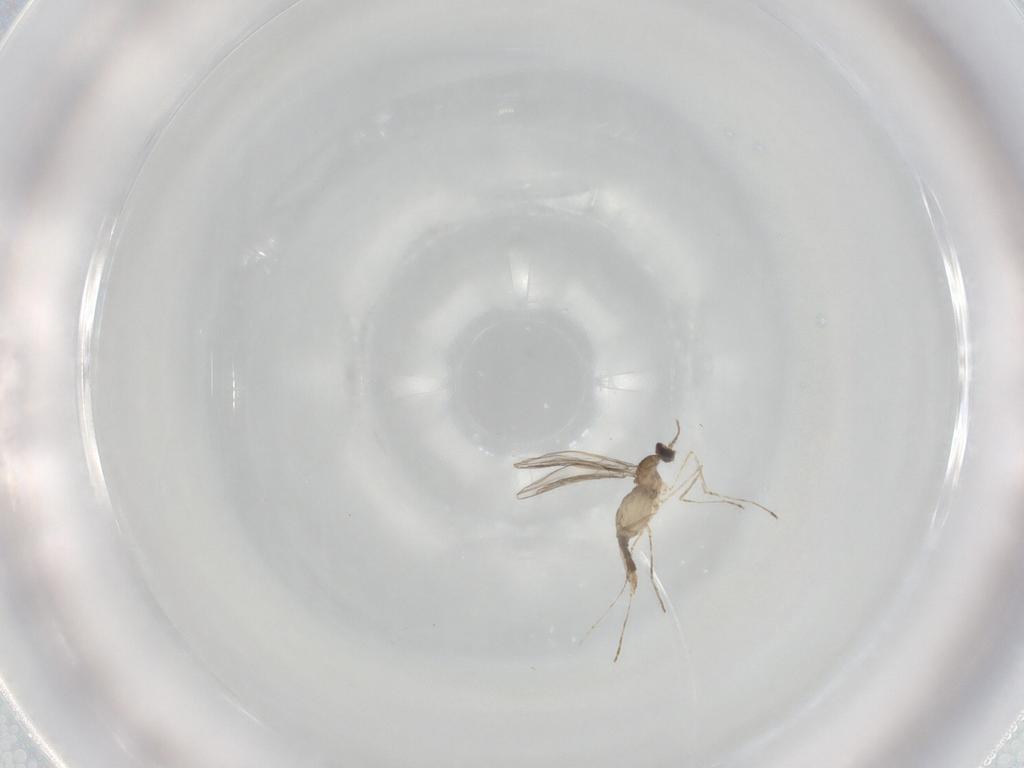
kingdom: Animalia
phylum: Arthropoda
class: Insecta
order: Diptera
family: Cecidomyiidae
